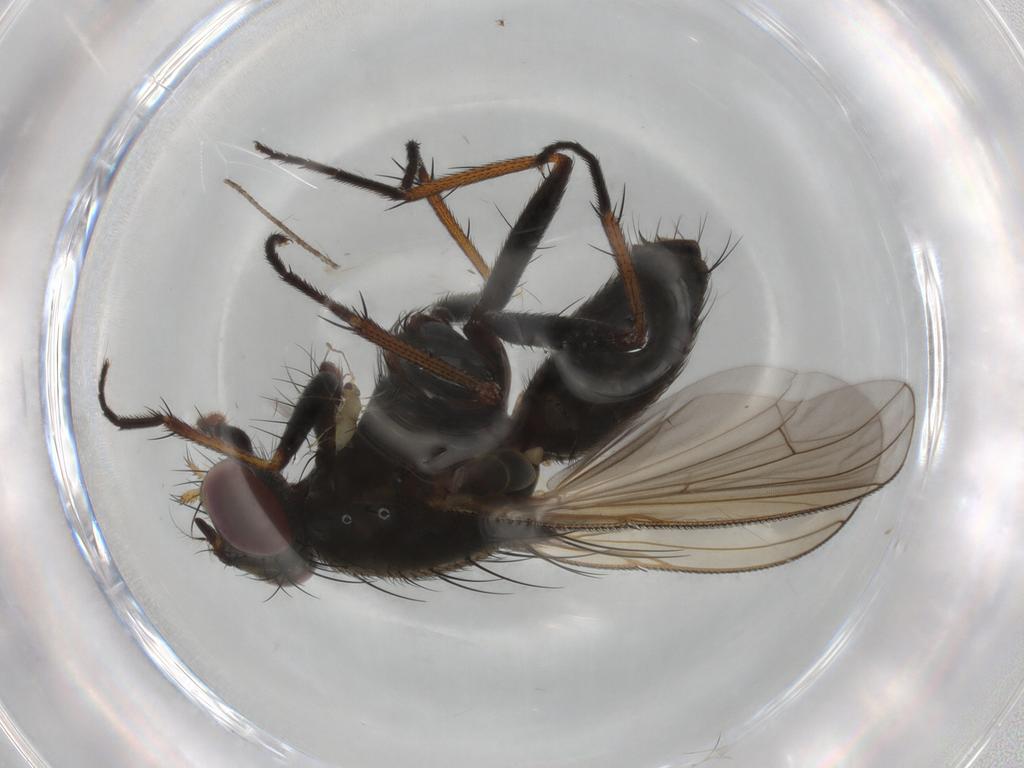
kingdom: Animalia
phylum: Arthropoda
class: Insecta
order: Diptera
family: Muscidae
